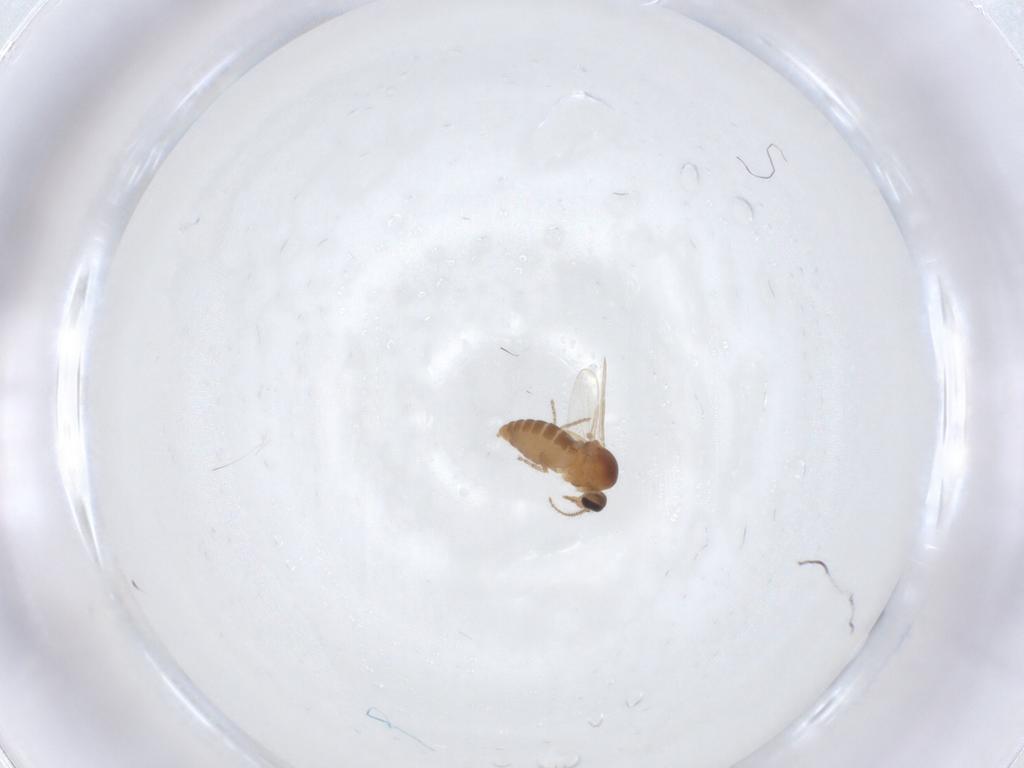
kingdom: Animalia
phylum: Arthropoda
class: Insecta
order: Diptera
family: Ceratopogonidae
